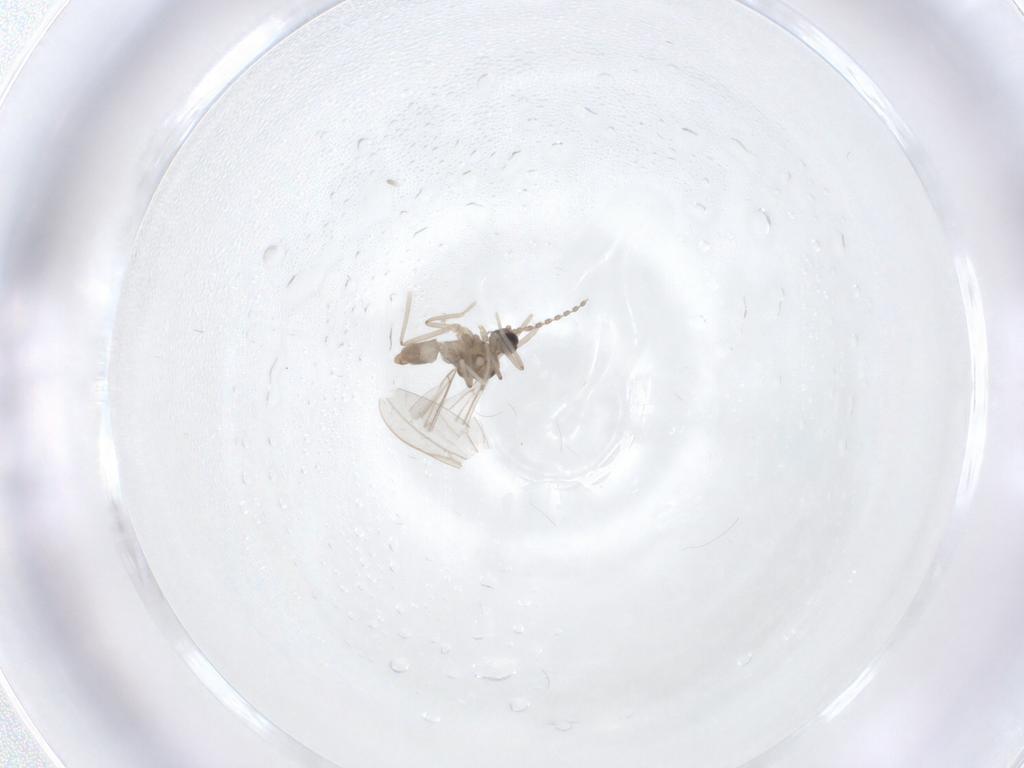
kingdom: Animalia
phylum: Arthropoda
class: Insecta
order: Diptera
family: Cecidomyiidae
